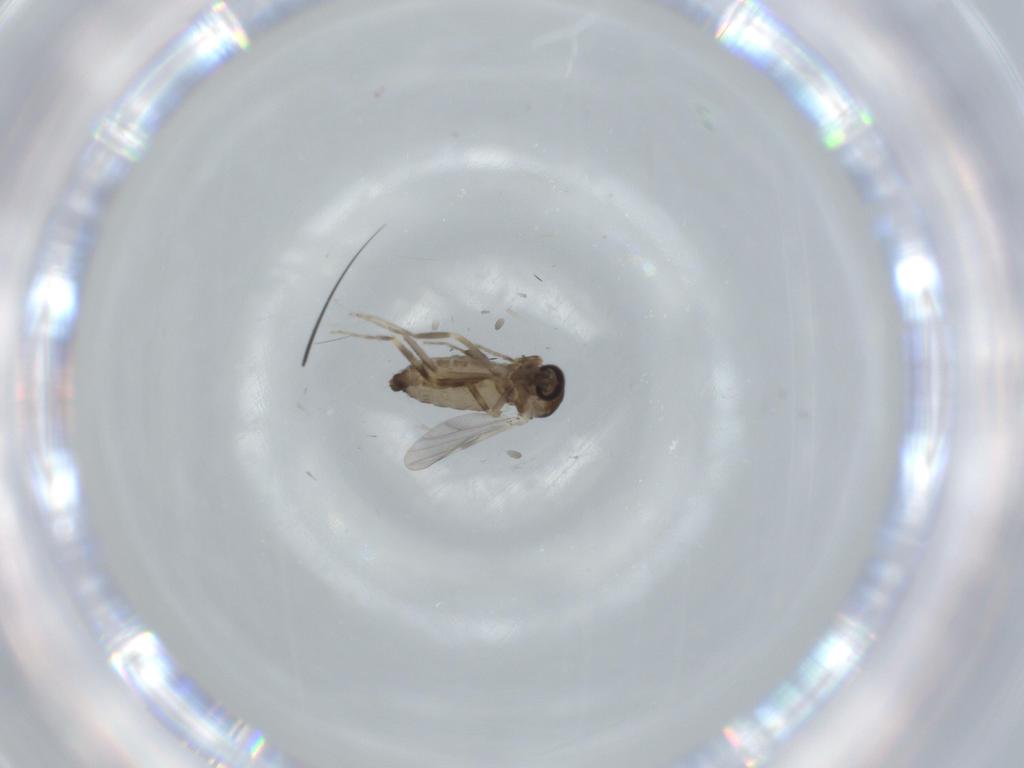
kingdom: Animalia
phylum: Arthropoda
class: Insecta
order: Diptera
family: Ceratopogonidae
